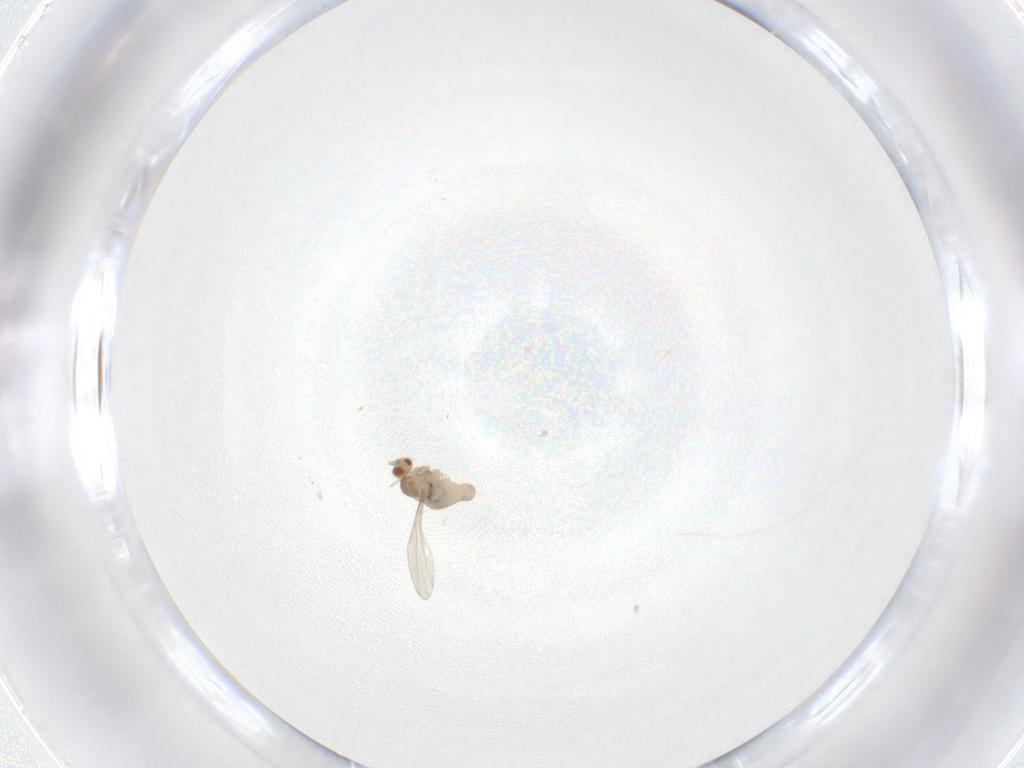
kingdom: Animalia
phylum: Arthropoda
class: Insecta
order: Diptera
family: Cecidomyiidae
